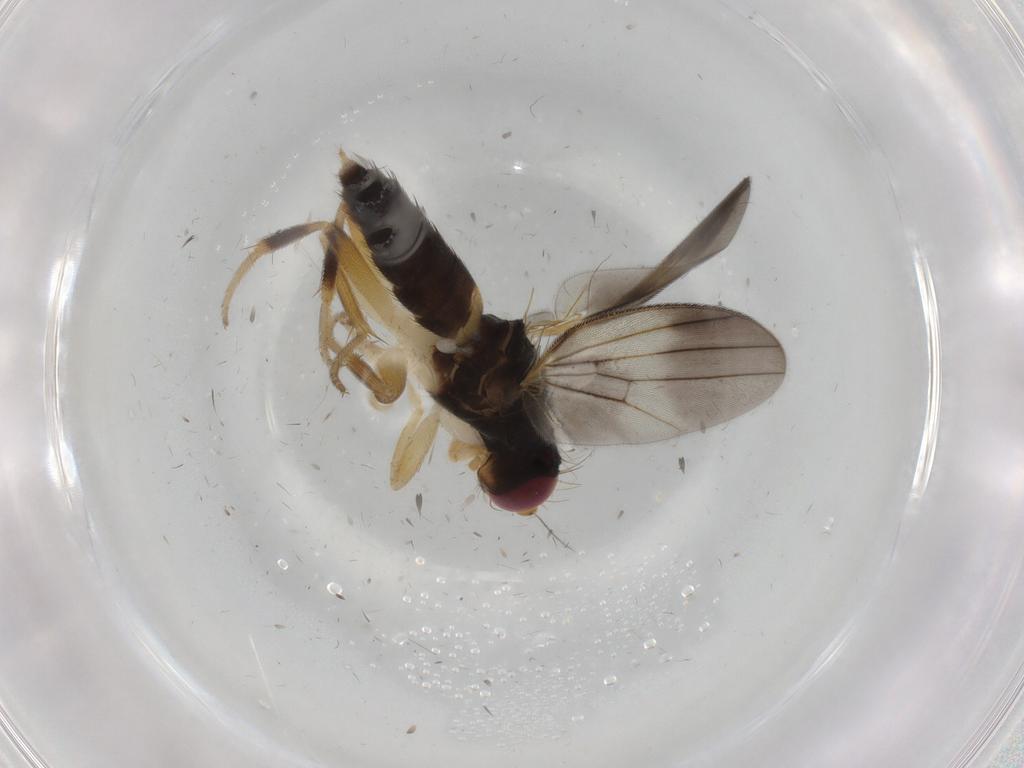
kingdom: Animalia
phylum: Arthropoda
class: Insecta
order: Diptera
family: Clusiidae
